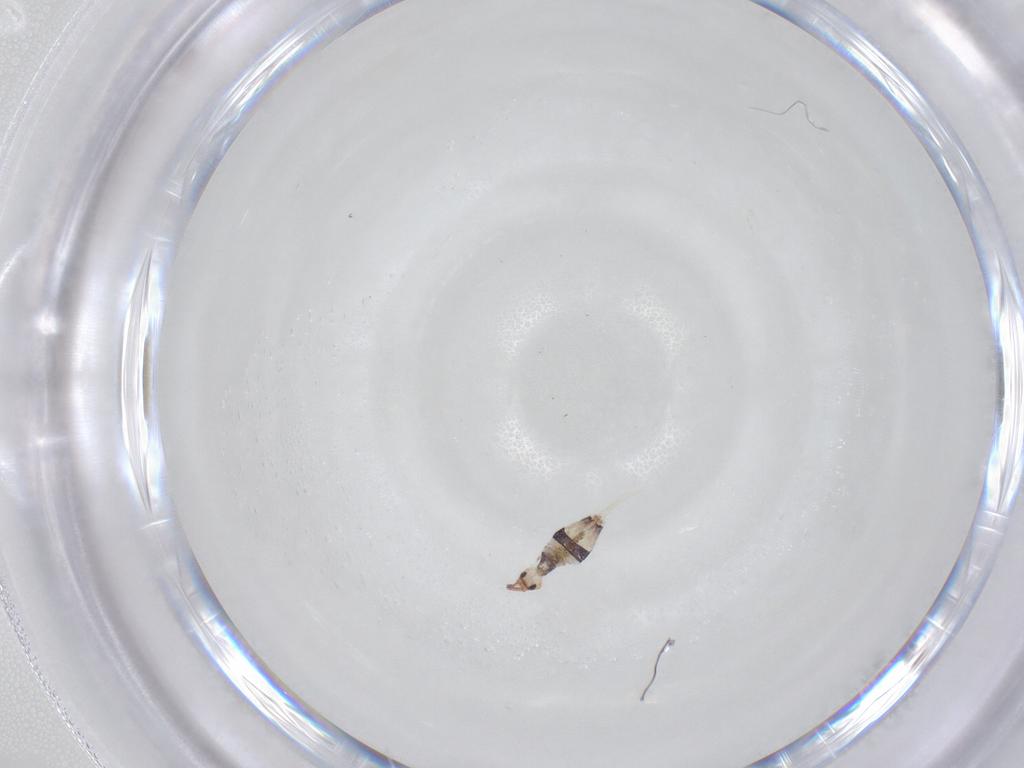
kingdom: Animalia
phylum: Arthropoda
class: Collembola
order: Entomobryomorpha
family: Entomobryidae
